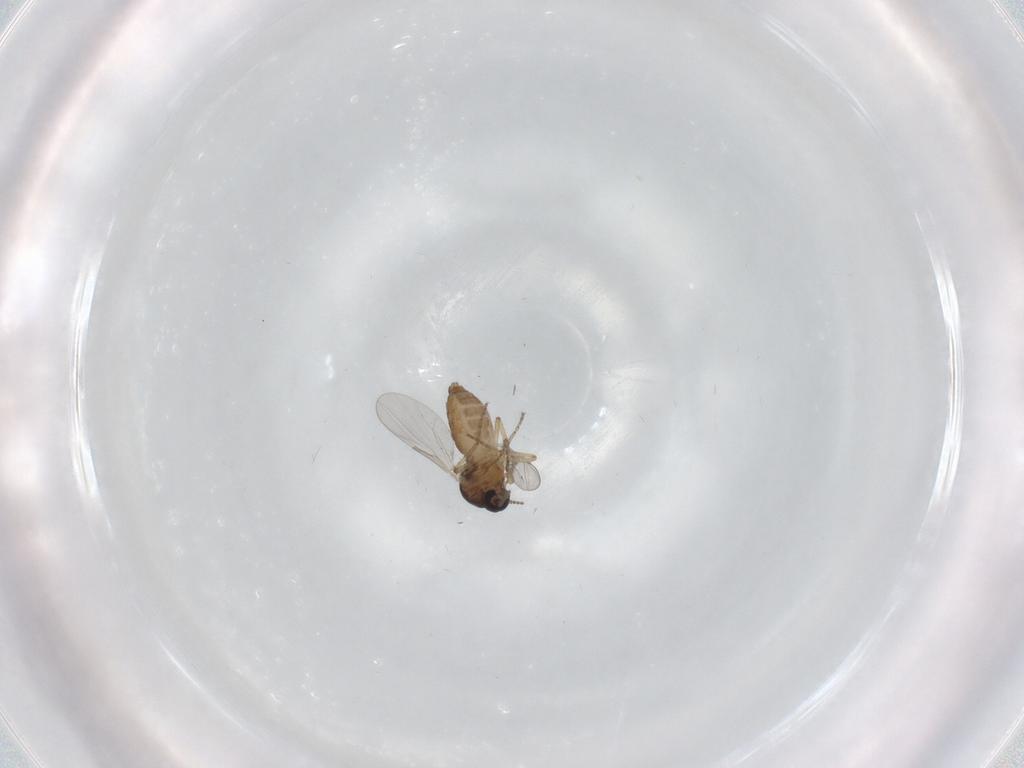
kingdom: Animalia
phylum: Arthropoda
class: Insecta
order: Diptera
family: Ceratopogonidae
